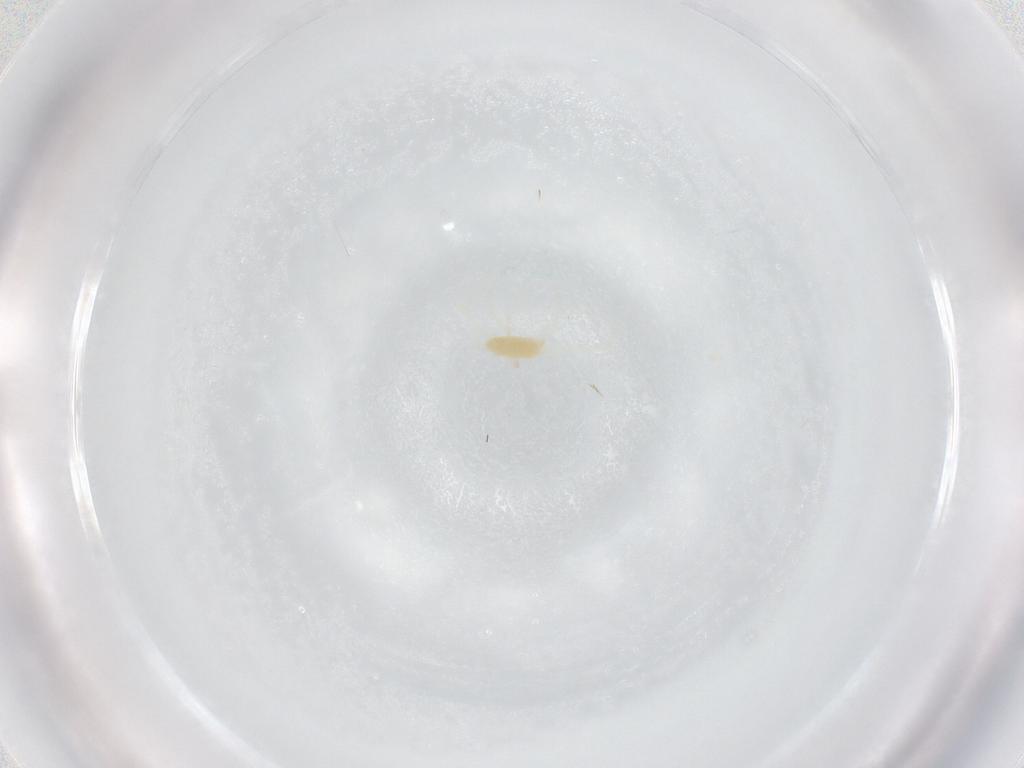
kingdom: Animalia
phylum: Arthropoda
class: Arachnida
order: Trombidiformes
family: Tetranychidae
